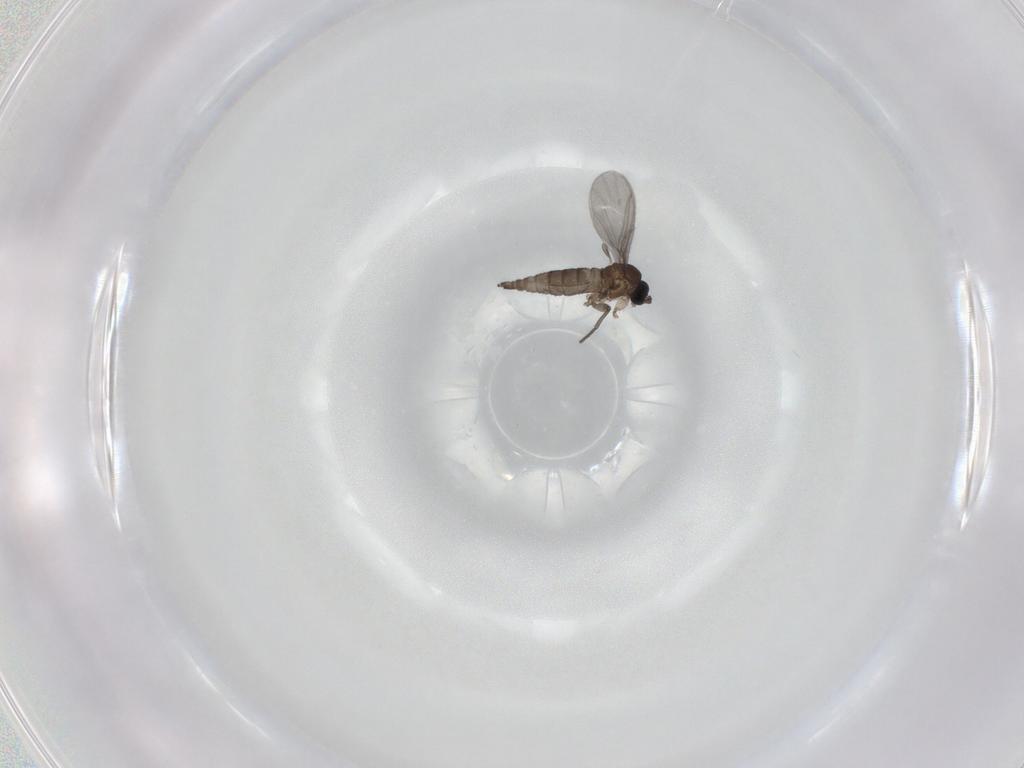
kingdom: Animalia
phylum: Arthropoda
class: Insecta
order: Diptera
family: Sciaridae
